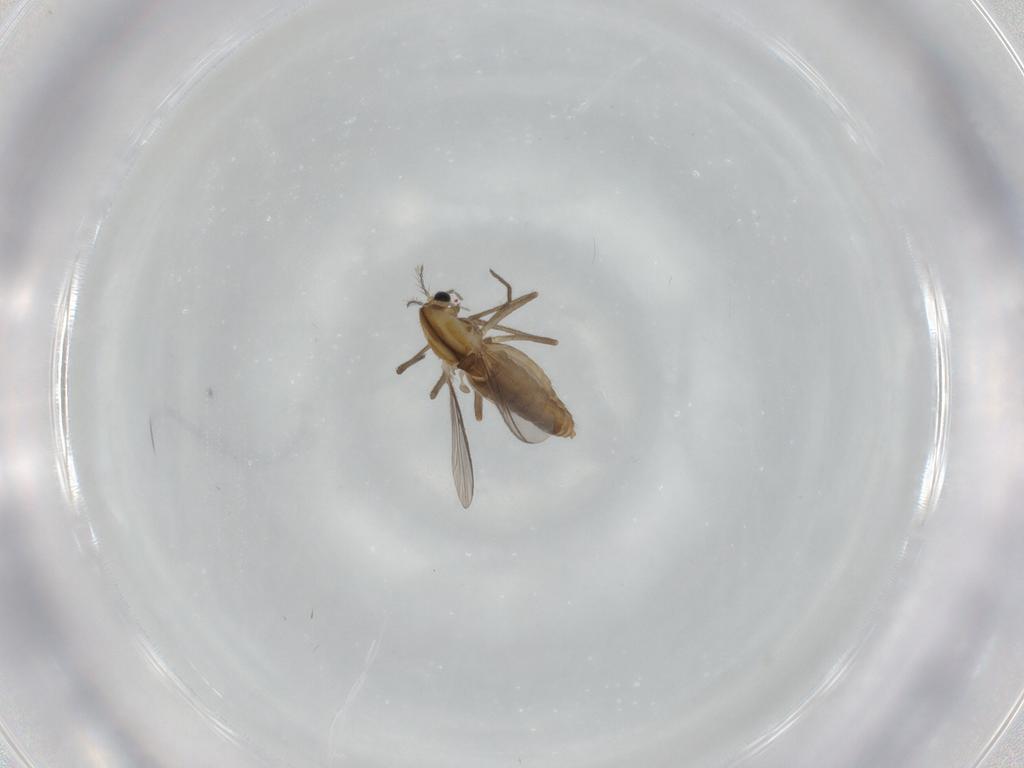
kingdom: Animalia
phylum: Arthropoda
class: Insecta
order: Diptera
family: Chironomidae
